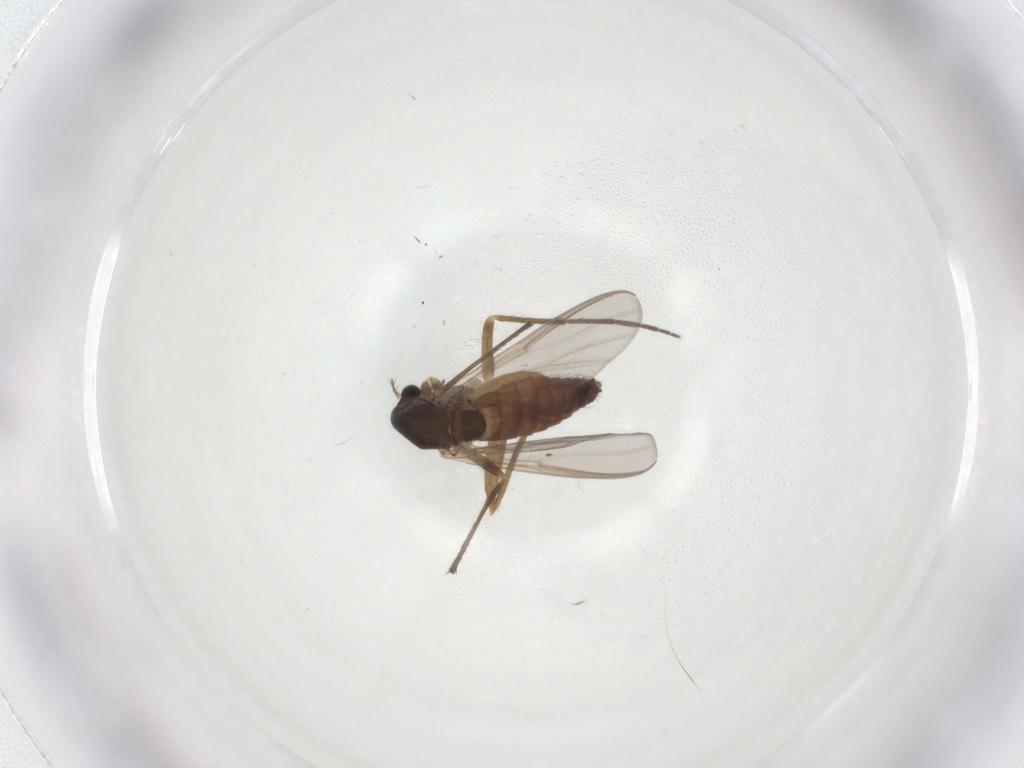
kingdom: Animalia
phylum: Arthropoda
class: Insecta
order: Diptera
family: Chironomidae
